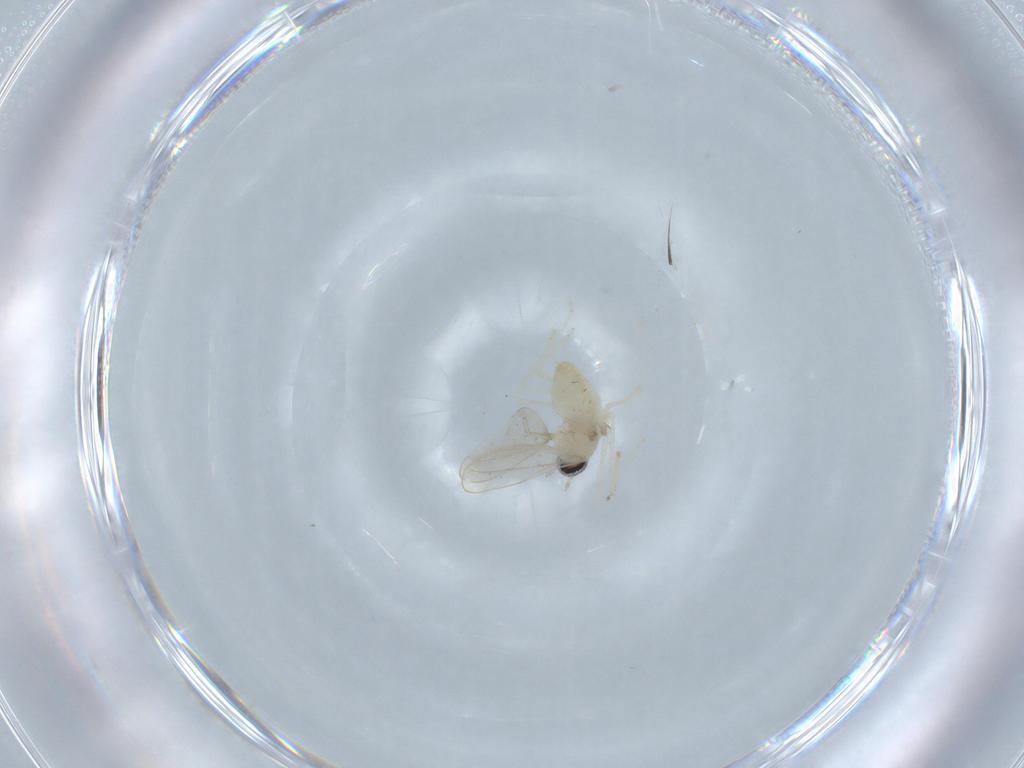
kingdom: Animalia
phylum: Arthropoda
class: Insecta
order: Diptera
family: Cecidomyiidae
